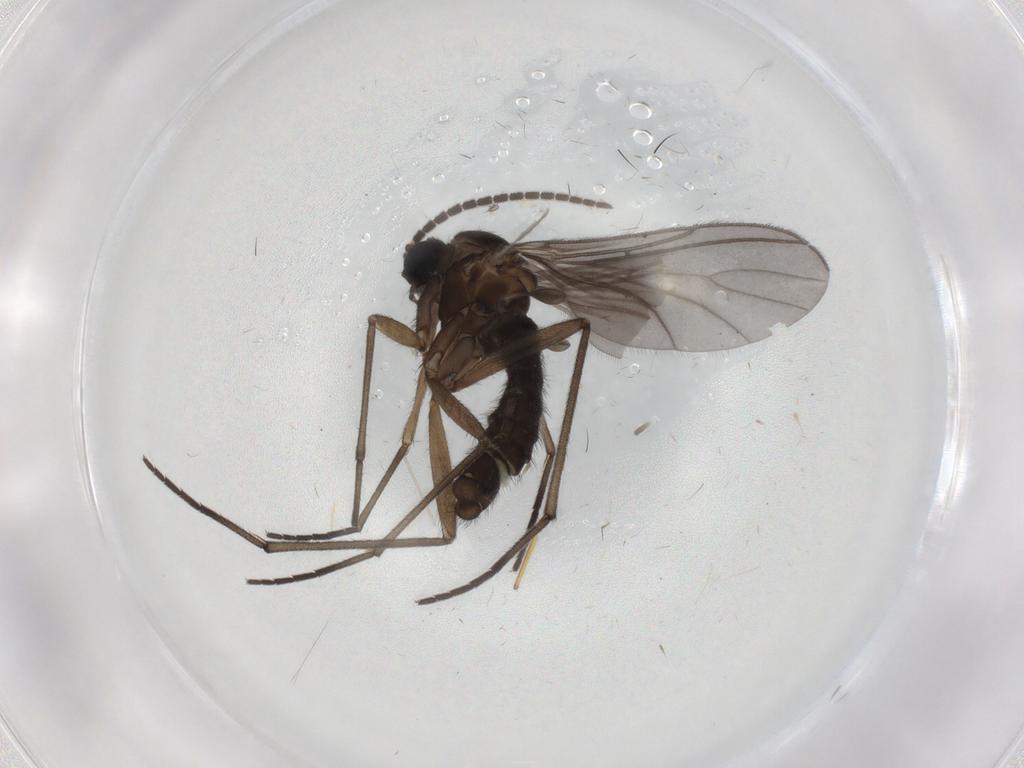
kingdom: Animalia
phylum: Arthropoda
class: Insecta
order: Diptera
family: Sciaridae
